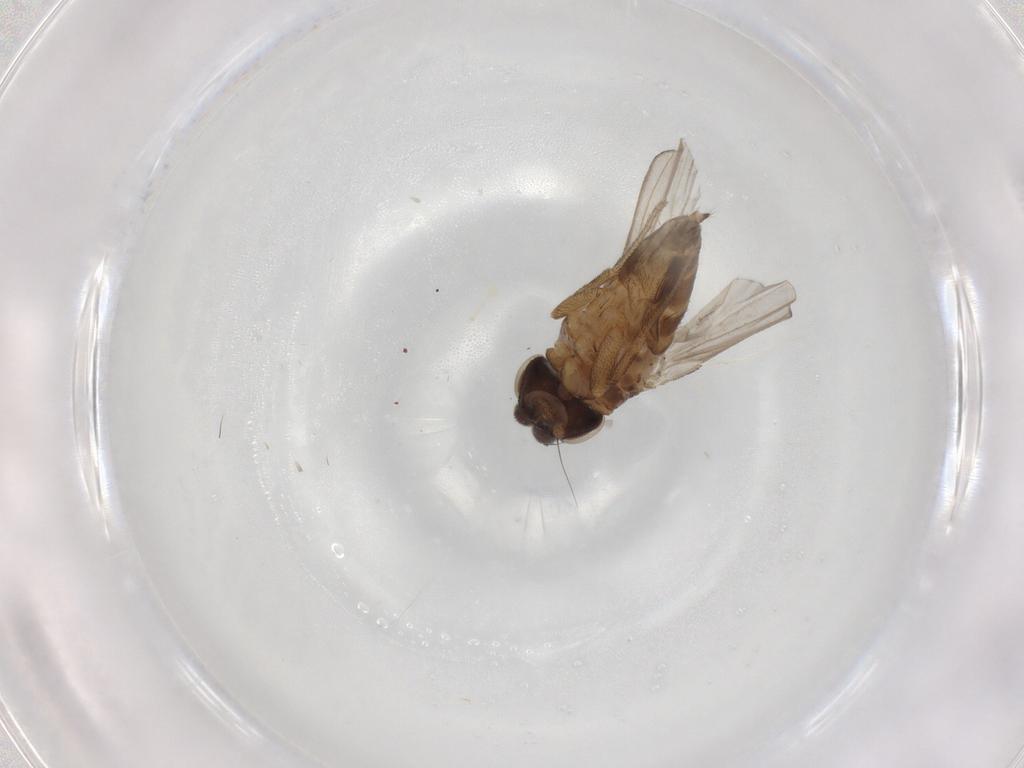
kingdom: Animalia
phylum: Arthropoda
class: Insecta
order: Diptera
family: Milichiidae
